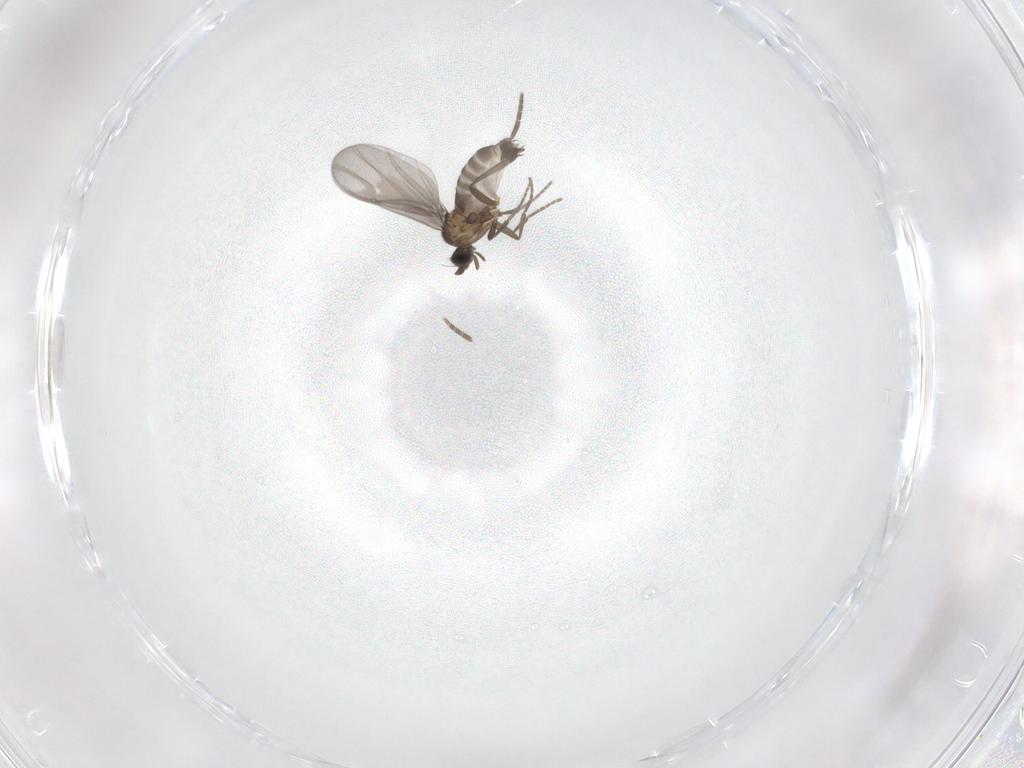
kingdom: Animalia
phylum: Arthropoda
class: Insecta
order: Diptera
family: Phoridae
